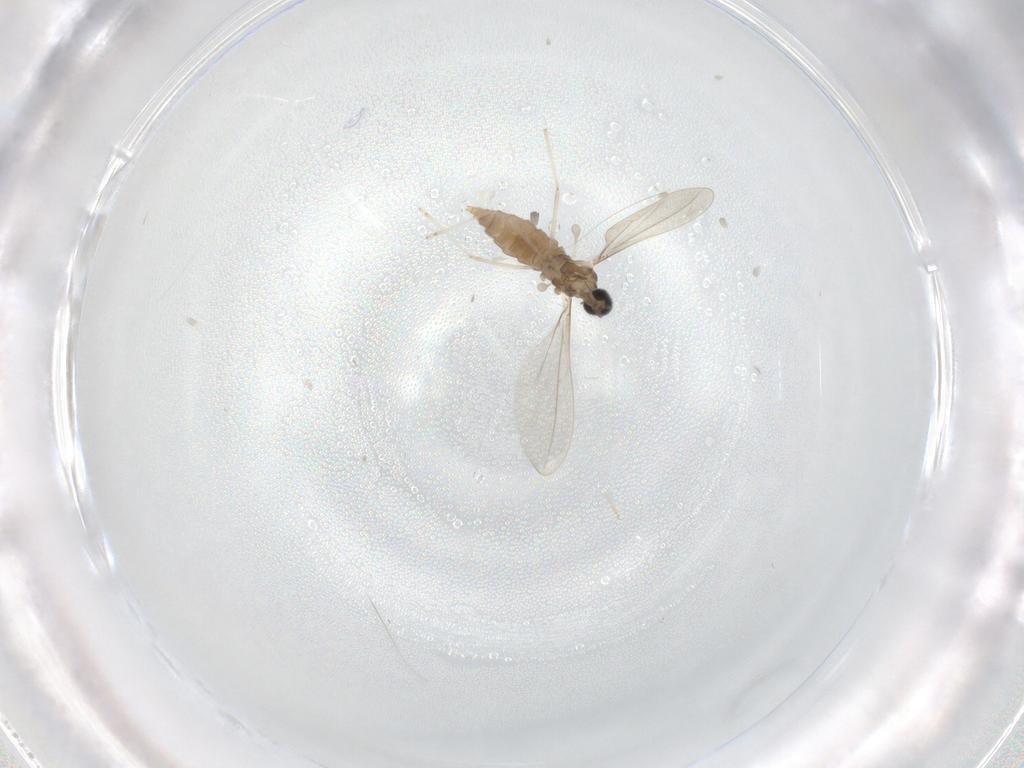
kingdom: Animalia
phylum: Arthropoda
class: Insecta
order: Diptera
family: Cecidomyiidae
